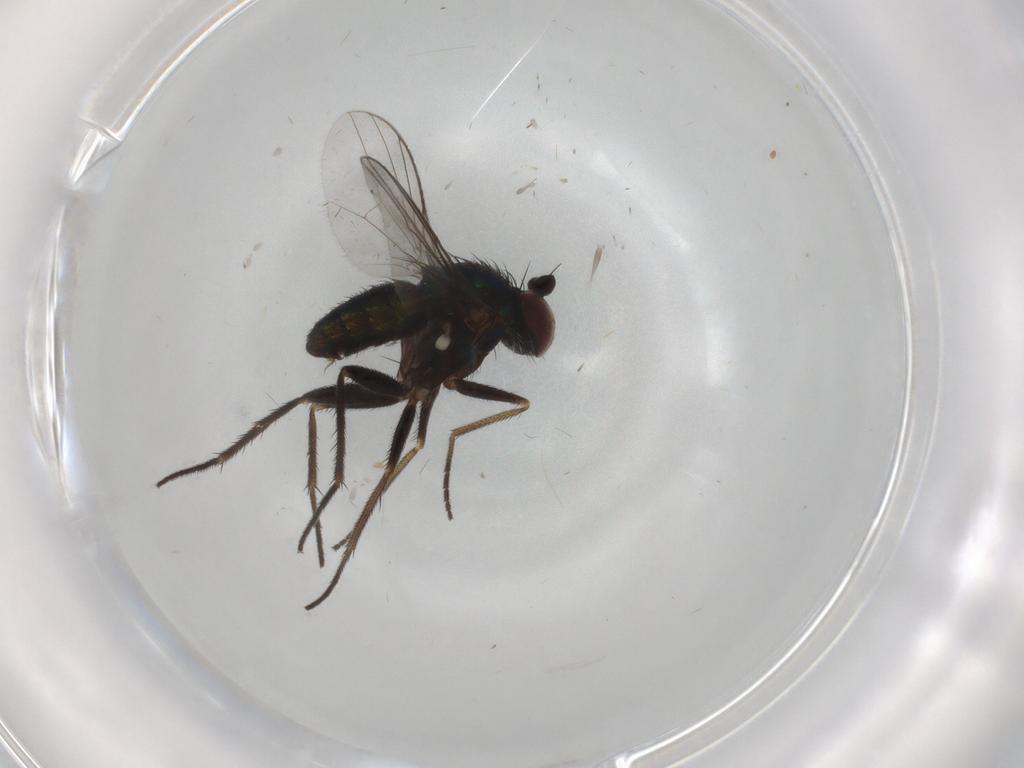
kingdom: Animalia
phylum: Arthropoda
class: Insecta
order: Diptera
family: Dolichopodidae
